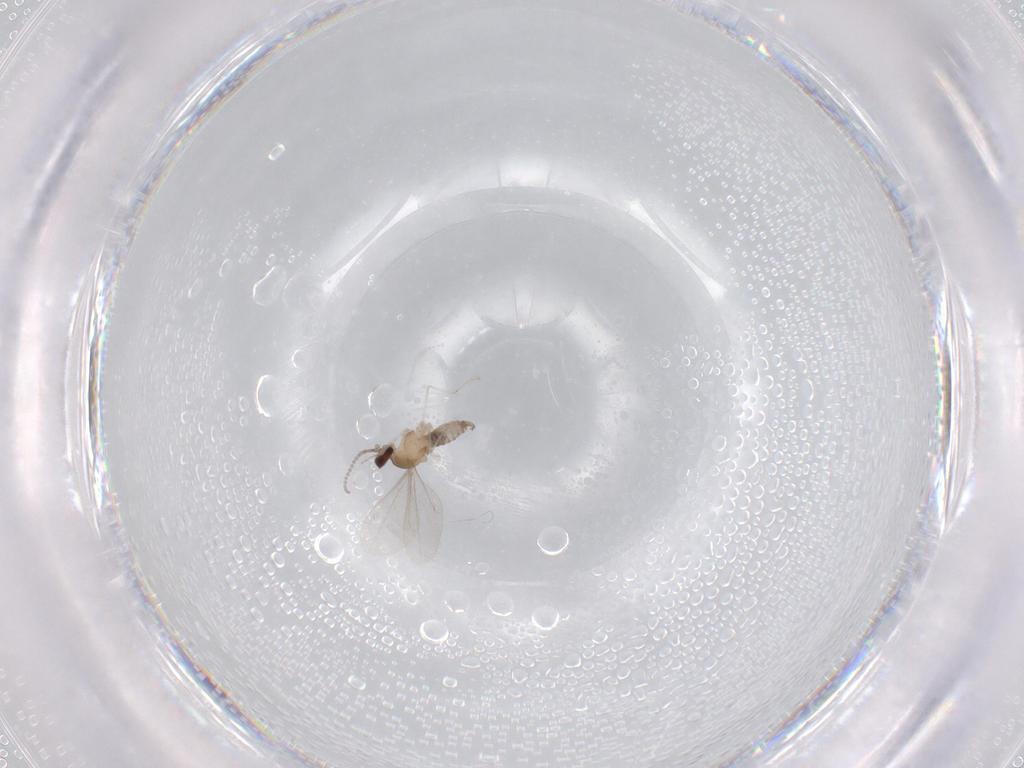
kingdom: Animalia
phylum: Arthropoda
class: Insecta
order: Diptera
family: Cecidomyiidae
